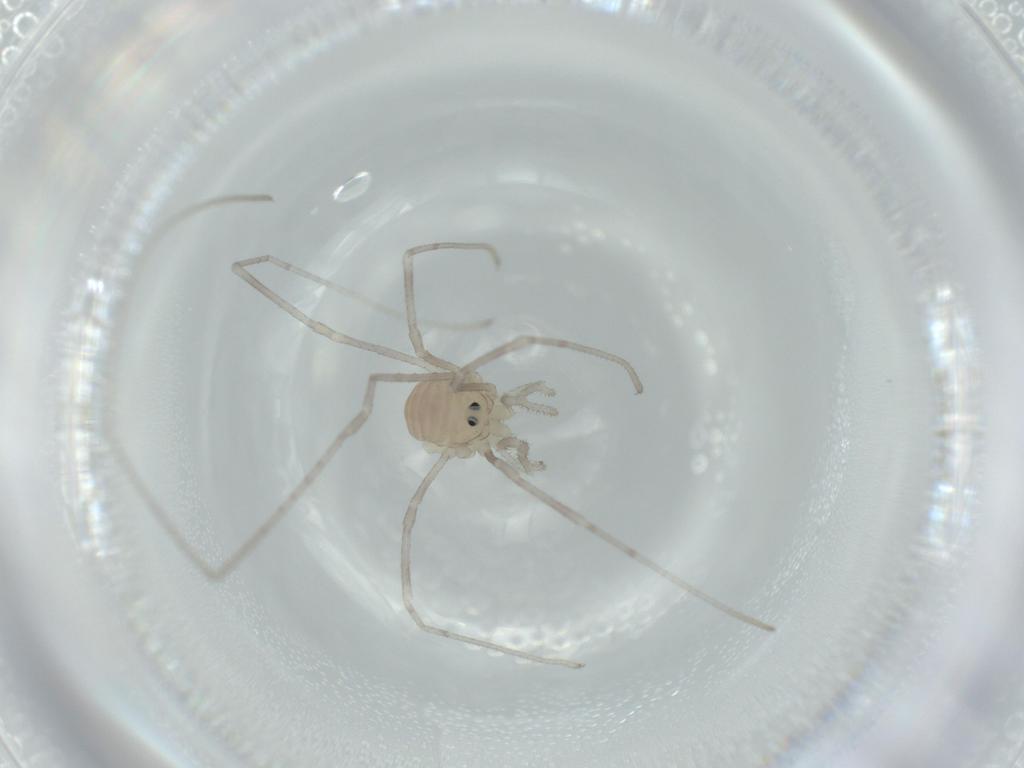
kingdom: Animalia
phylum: Arthropoda
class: Arachnida
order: Opiliones
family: Sclerosomatidae
